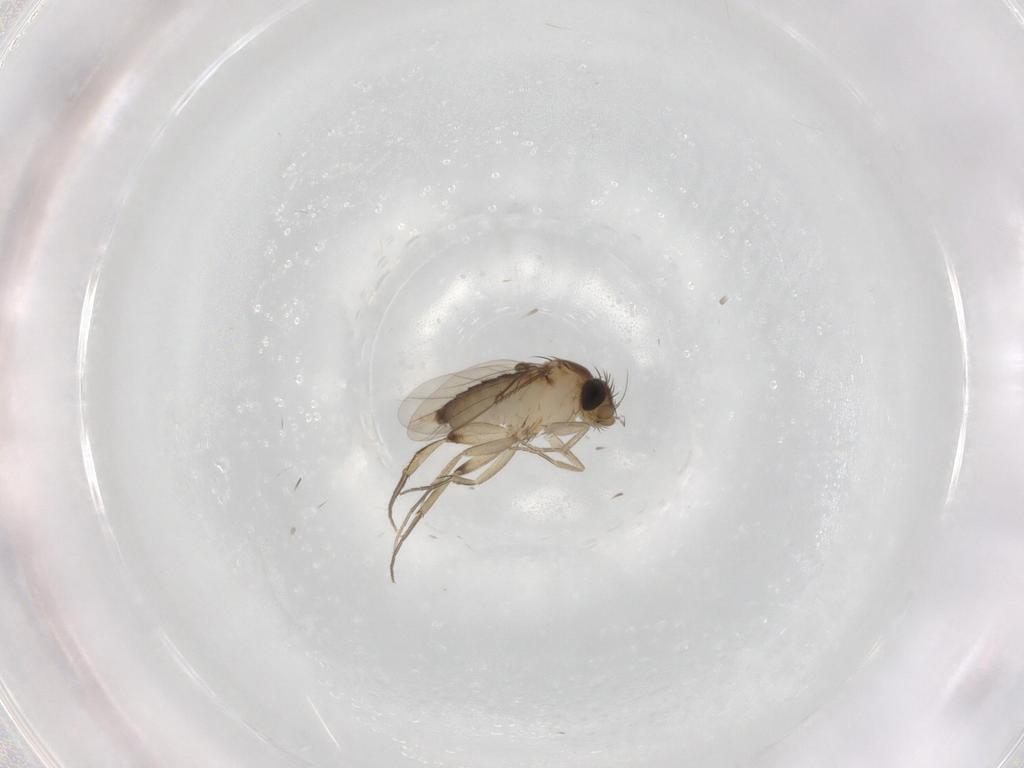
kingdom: Animalia
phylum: Arthropoda
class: Insecta
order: Diptera
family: Phoridae
